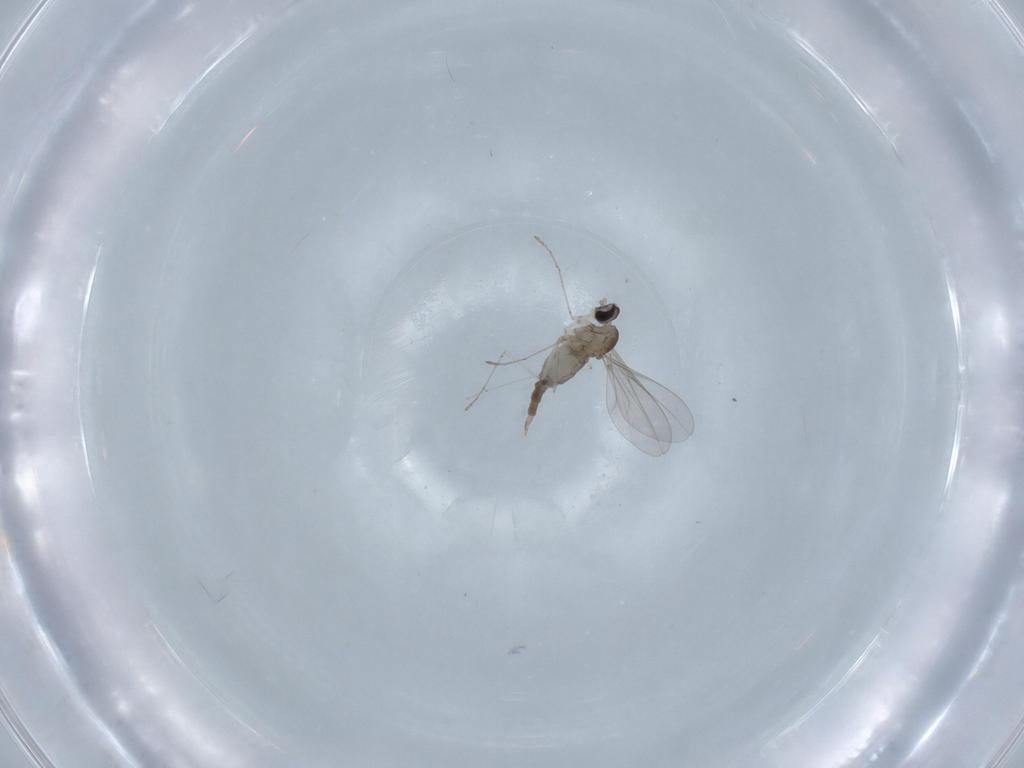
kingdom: Animalia
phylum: Arthropoda
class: Insecta
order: Diptera
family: Cecidomyiidae
